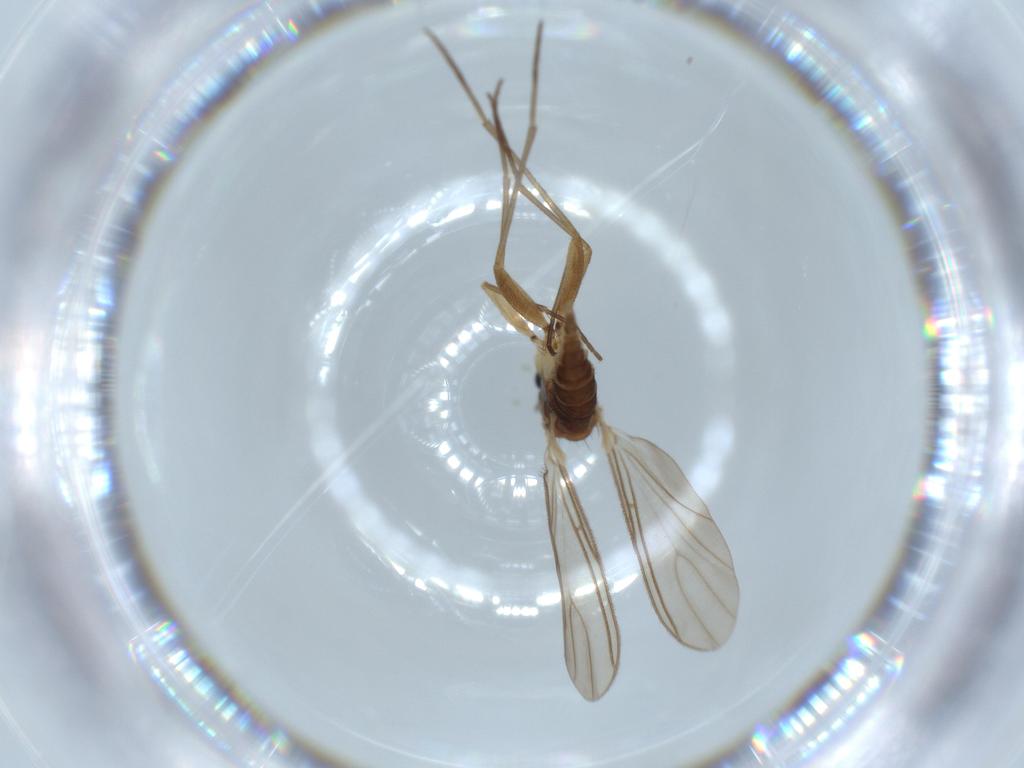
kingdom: Animalia
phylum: Arthropoda
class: Insecta
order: Diptera
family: Sciaridae
